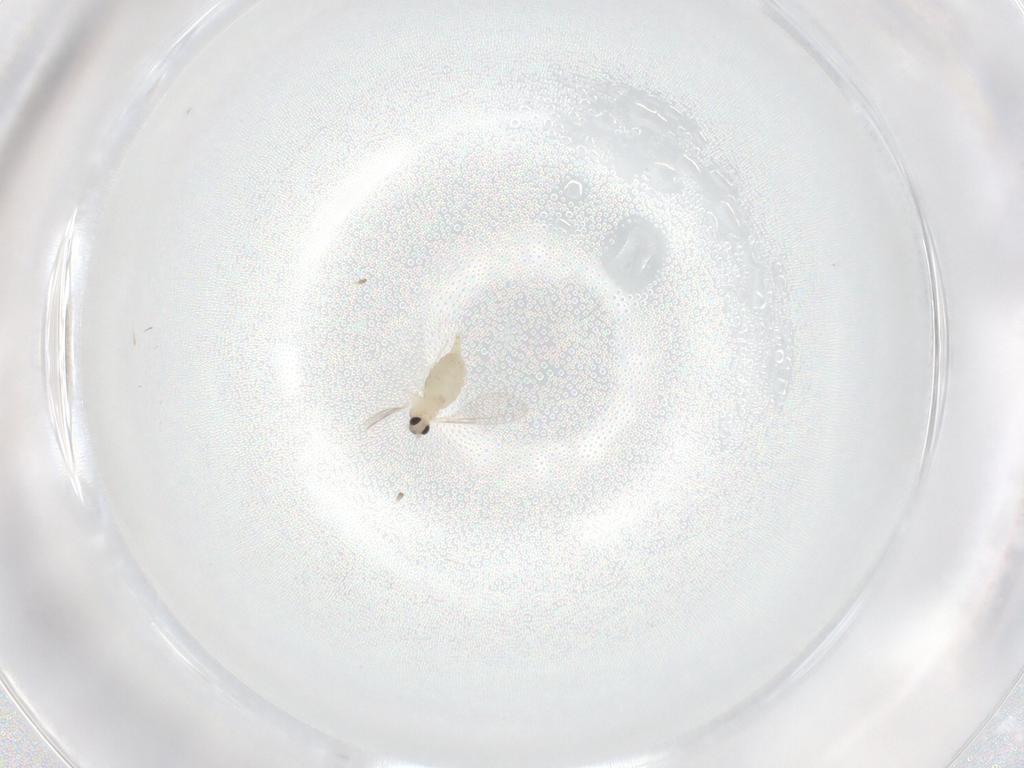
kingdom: Animalia
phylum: Arthropoda
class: Insecta
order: Diptera
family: Cecidomyiidae
